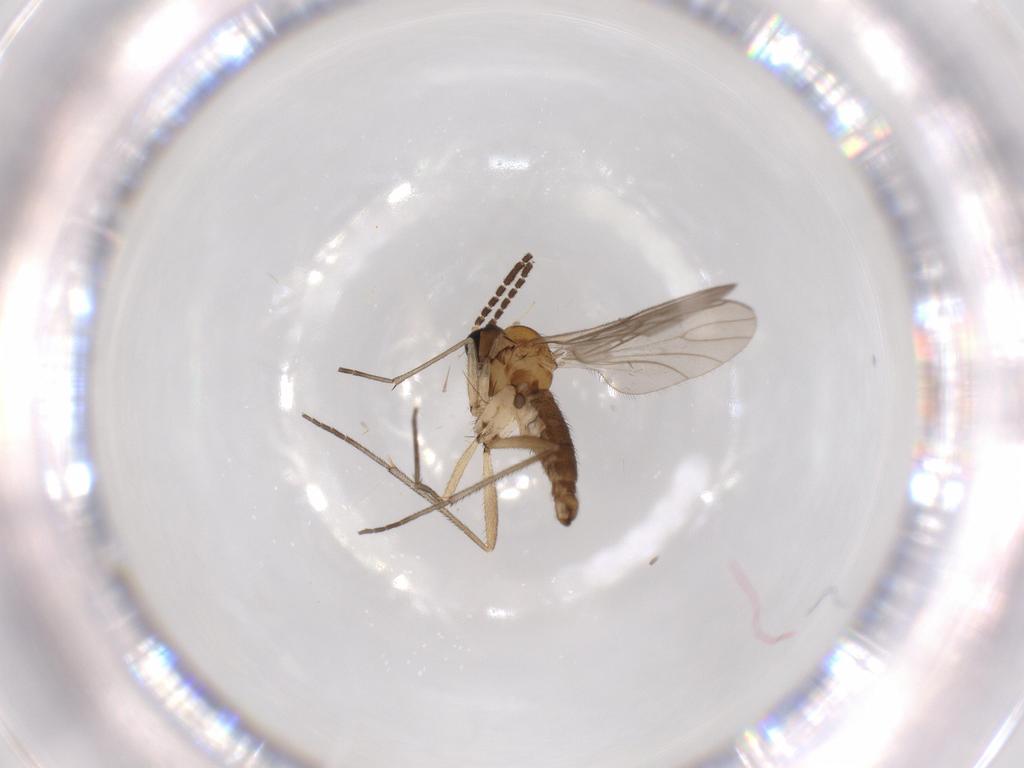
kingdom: Animalia
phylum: Arthropoda
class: Insecta
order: Diptera
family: Sciaridae
